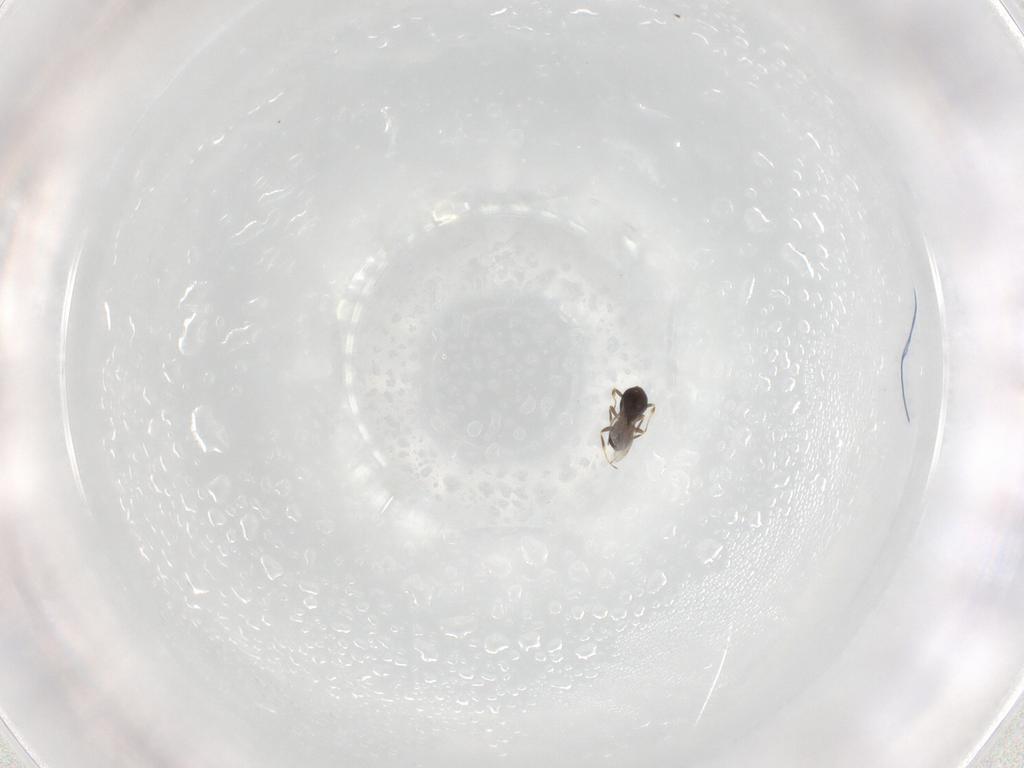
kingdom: Animalia
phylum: Arthropoda
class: Insecta
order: Hymenoptera
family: Scelionidae
